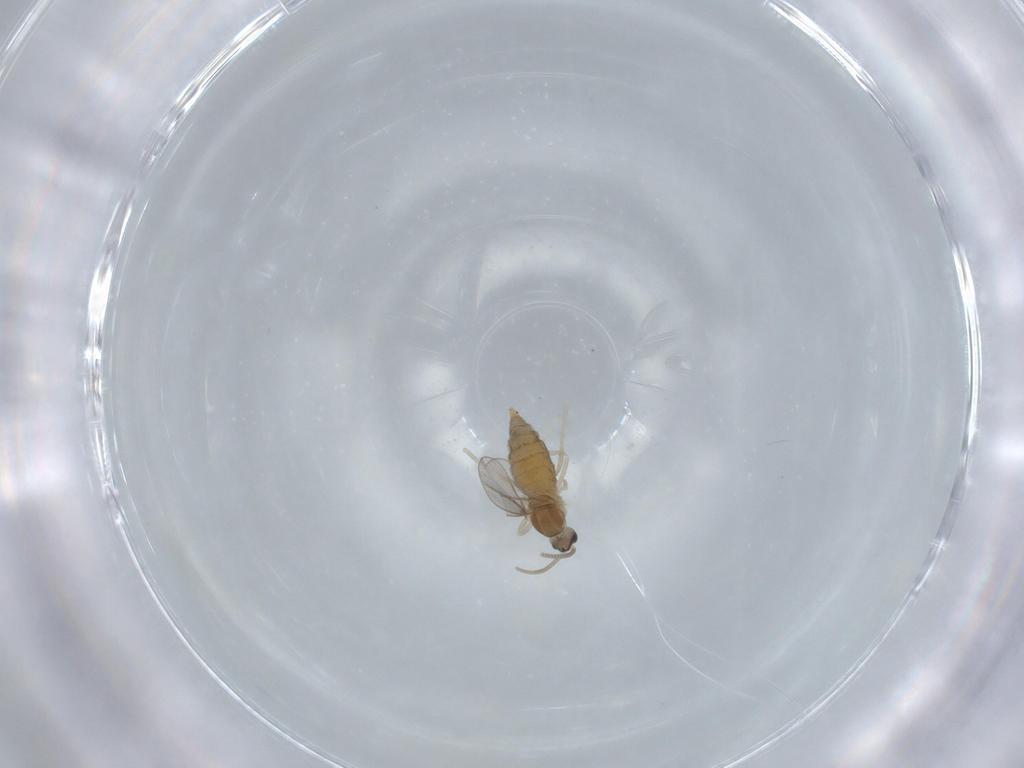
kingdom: Animalia
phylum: Arthropoda
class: Insecta
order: Diptera
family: Cecidomyiidae
